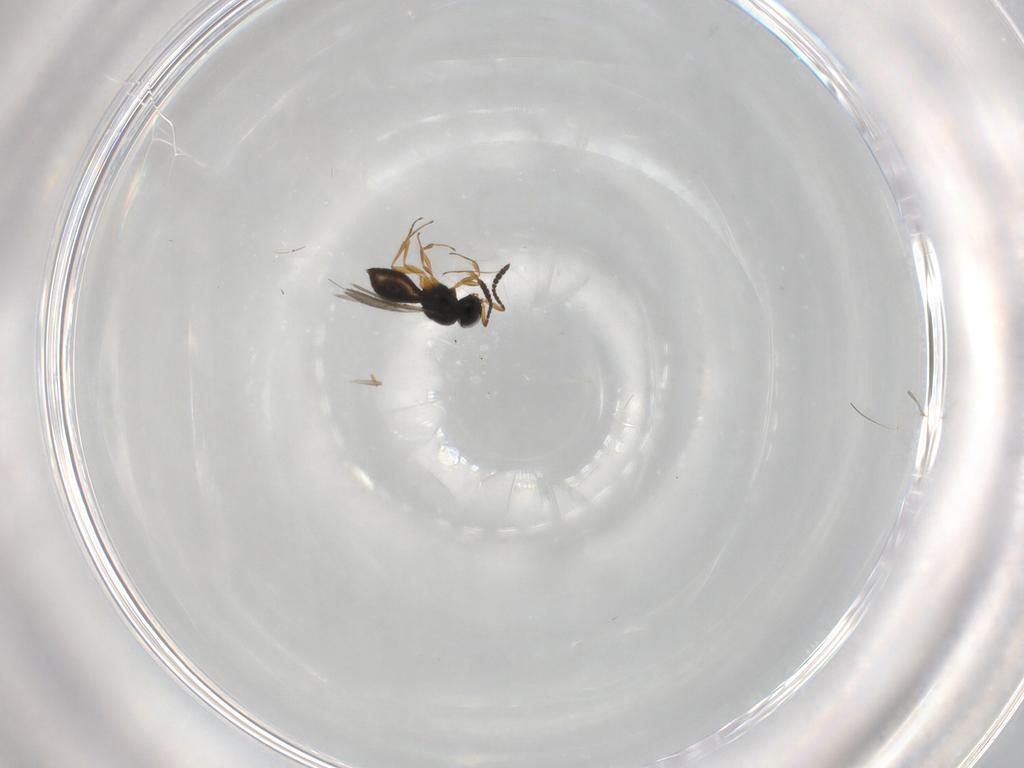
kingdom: Animalia
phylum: Arthropoda
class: Insecta
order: Hymenoptera
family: Scelionidae
